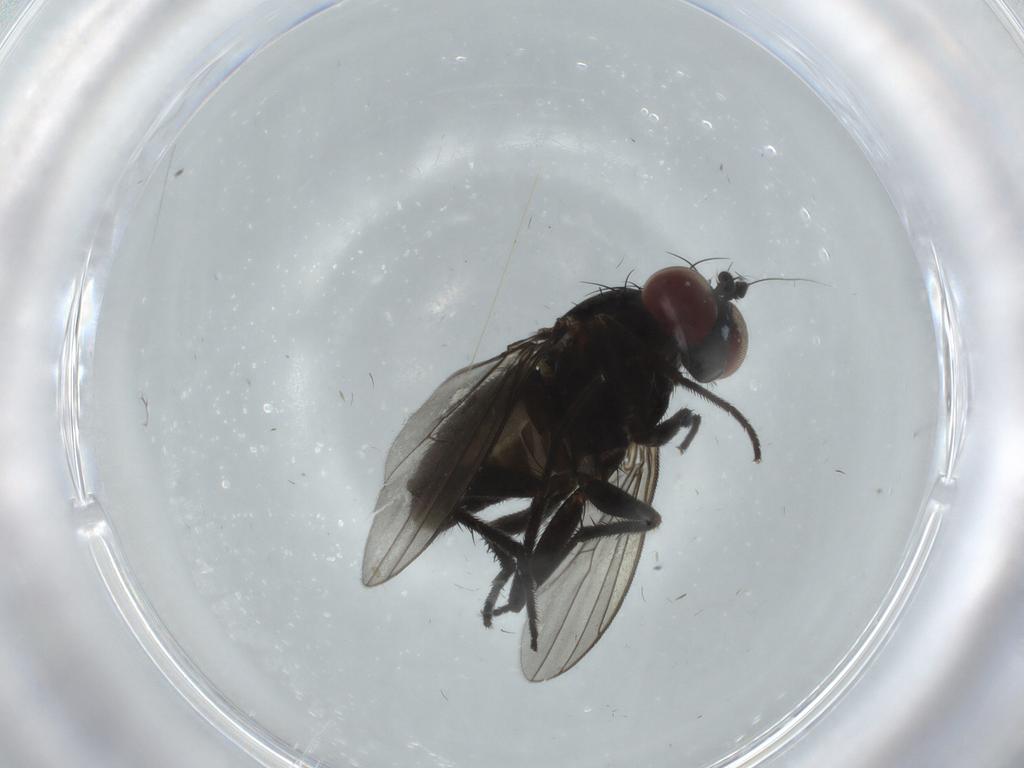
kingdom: Animalia
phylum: Arthropoda
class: Insecta
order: Diptera
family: Dolichopodidae
